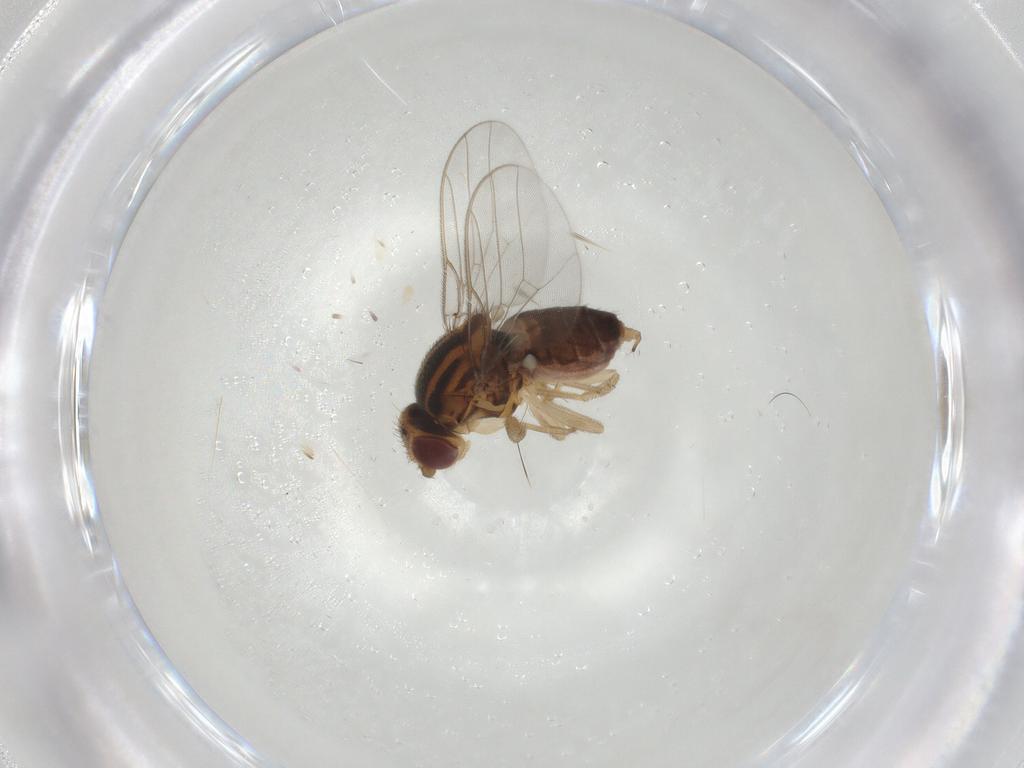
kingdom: Animalia
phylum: Arthropoda
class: Insecta
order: Diptera
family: Chloropidae
